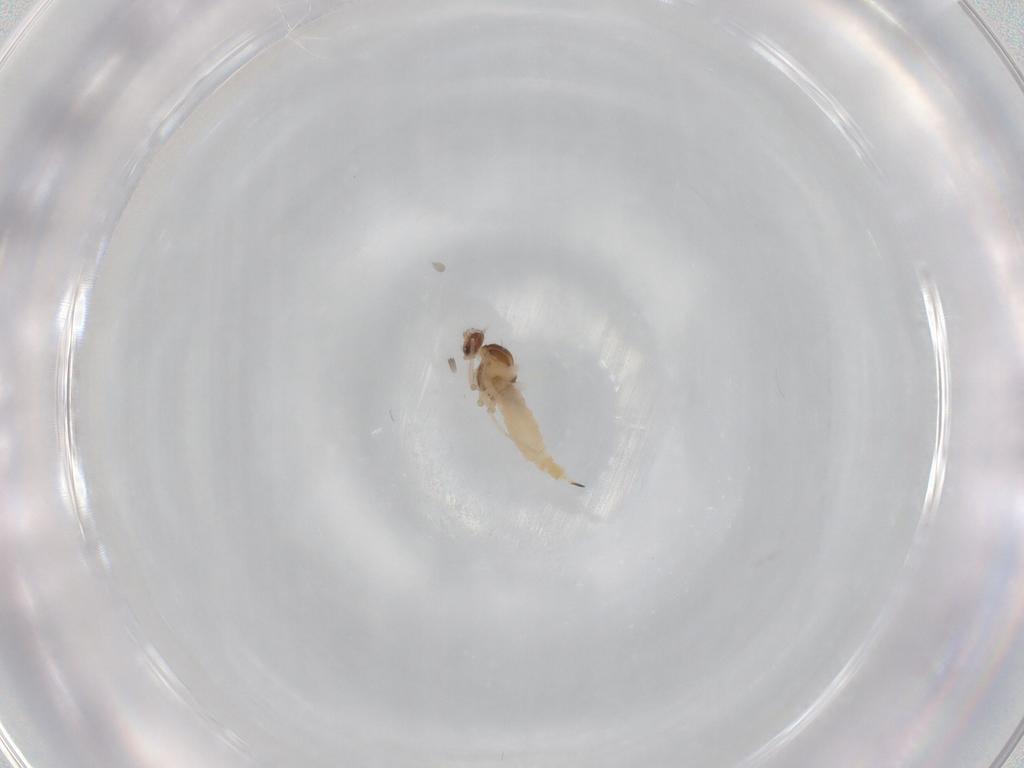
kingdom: Animalia
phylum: Arthropoda
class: Insecta
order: Diptera
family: Cecidomyiidae
